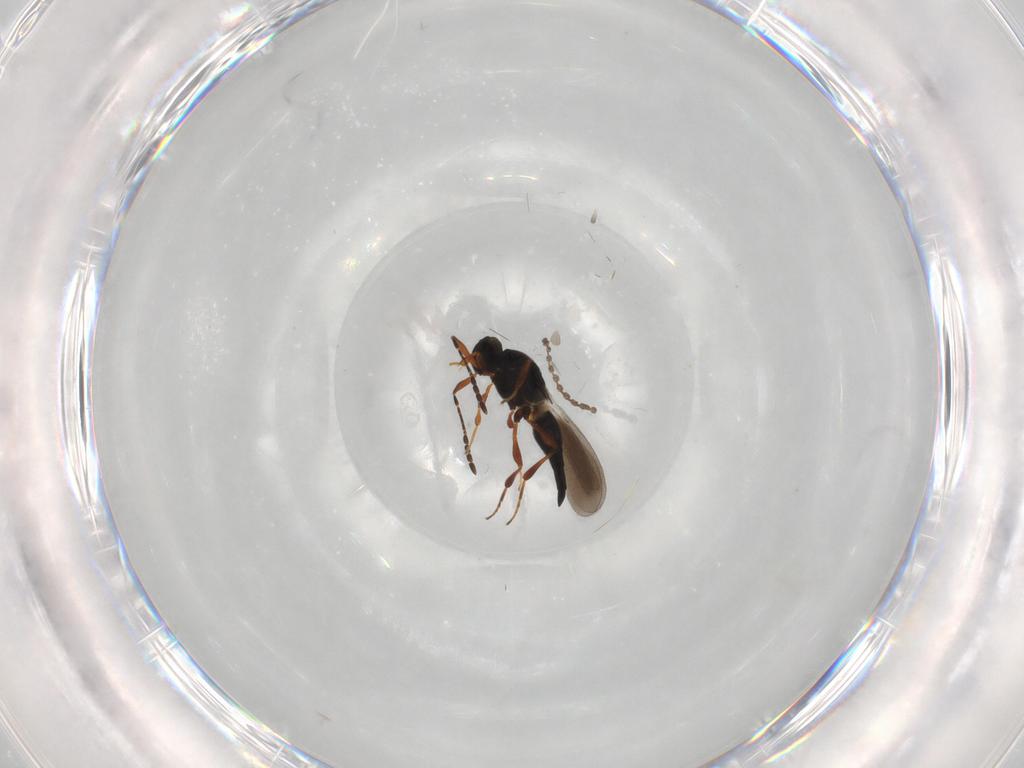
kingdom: Animalia
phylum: Arthropoda
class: Insecta
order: Hymenoptera
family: Platygastridae
